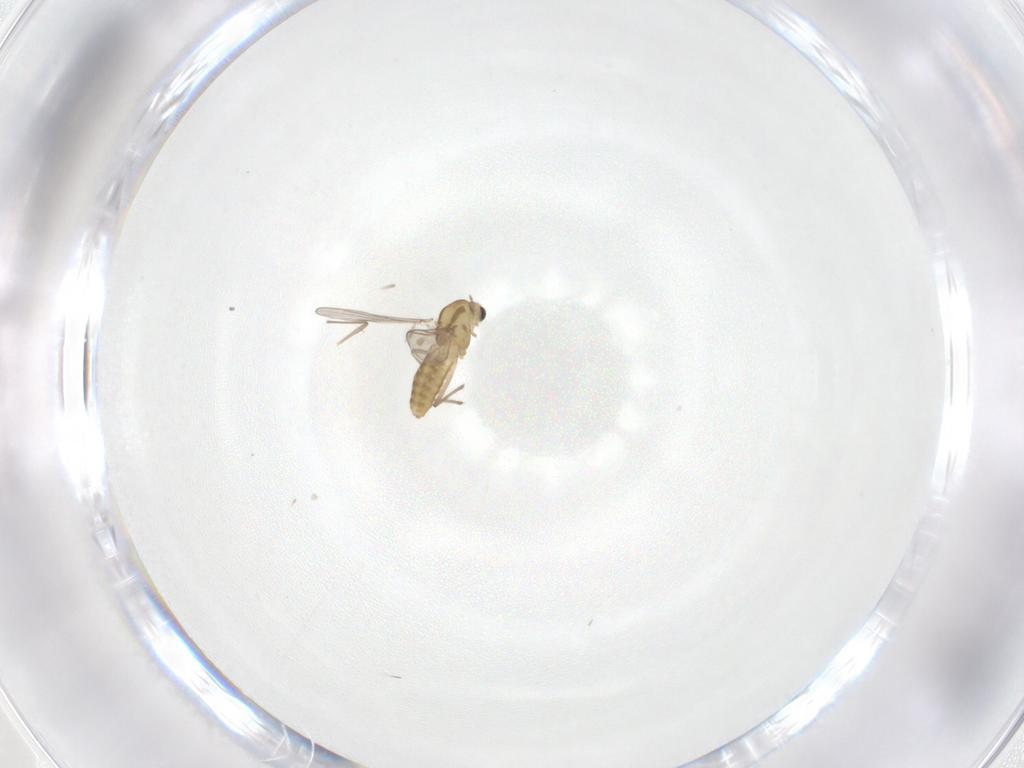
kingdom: Animalia
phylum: Arthropoda
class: Insecta
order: Diptera
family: Chironomidae
